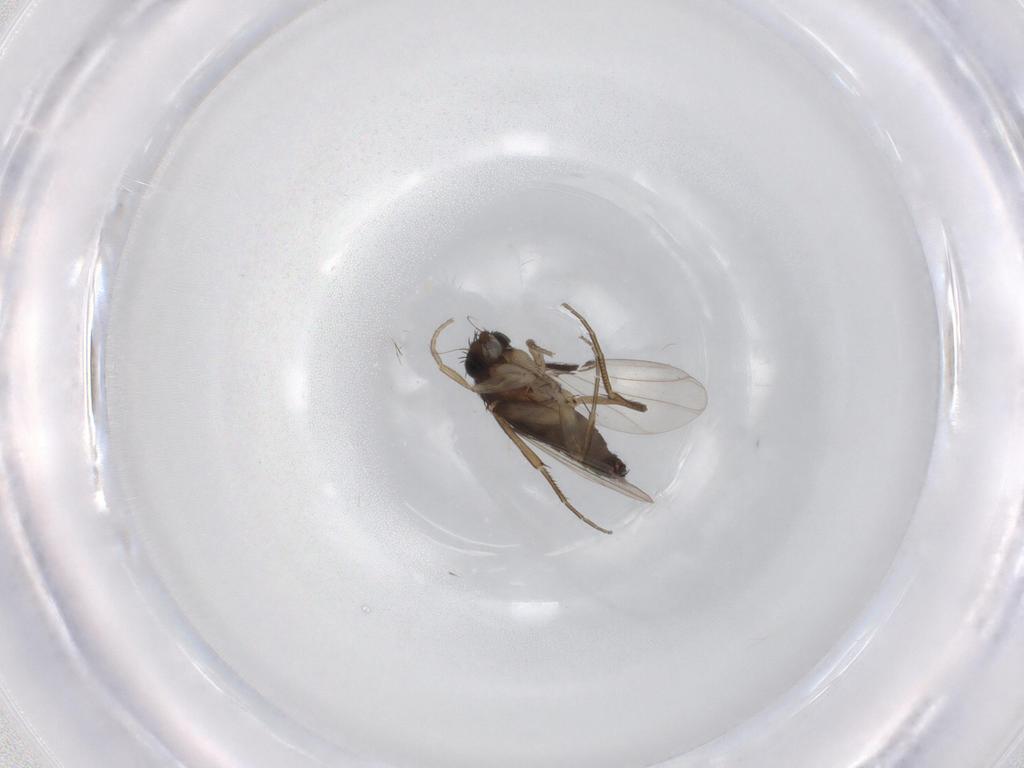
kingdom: Animalia
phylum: Arthropoda
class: Insecta
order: Diptera
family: Phoridae
